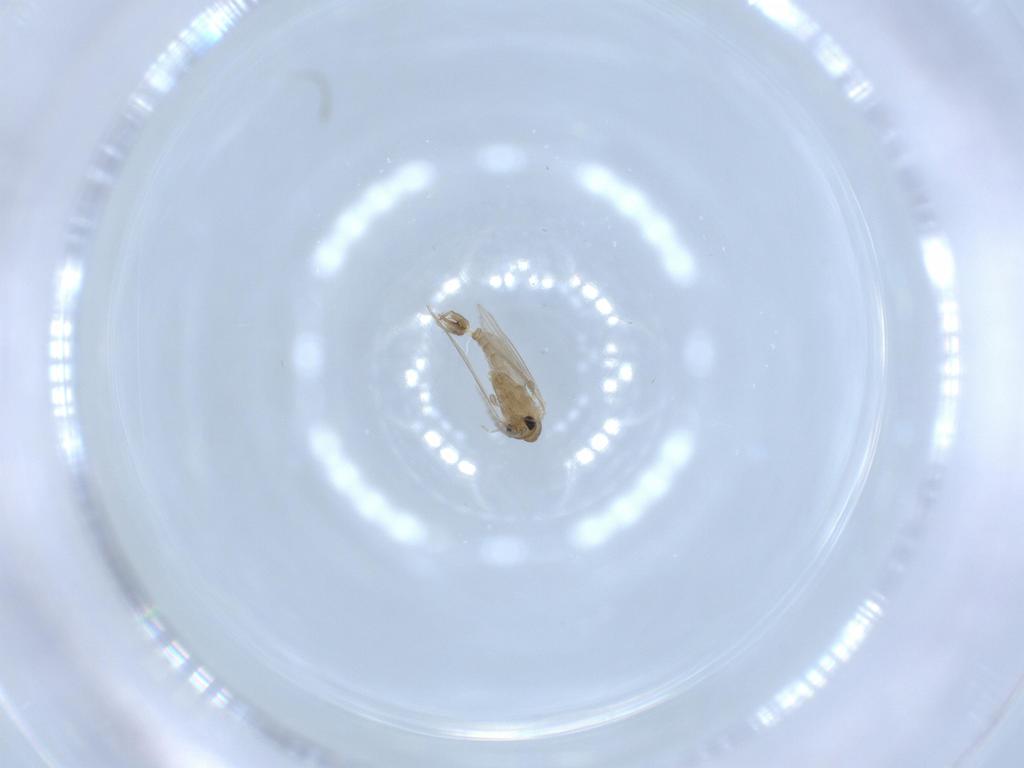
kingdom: Animalia
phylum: Arthropoda
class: Insecta
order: Diptera
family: Psychodidae
